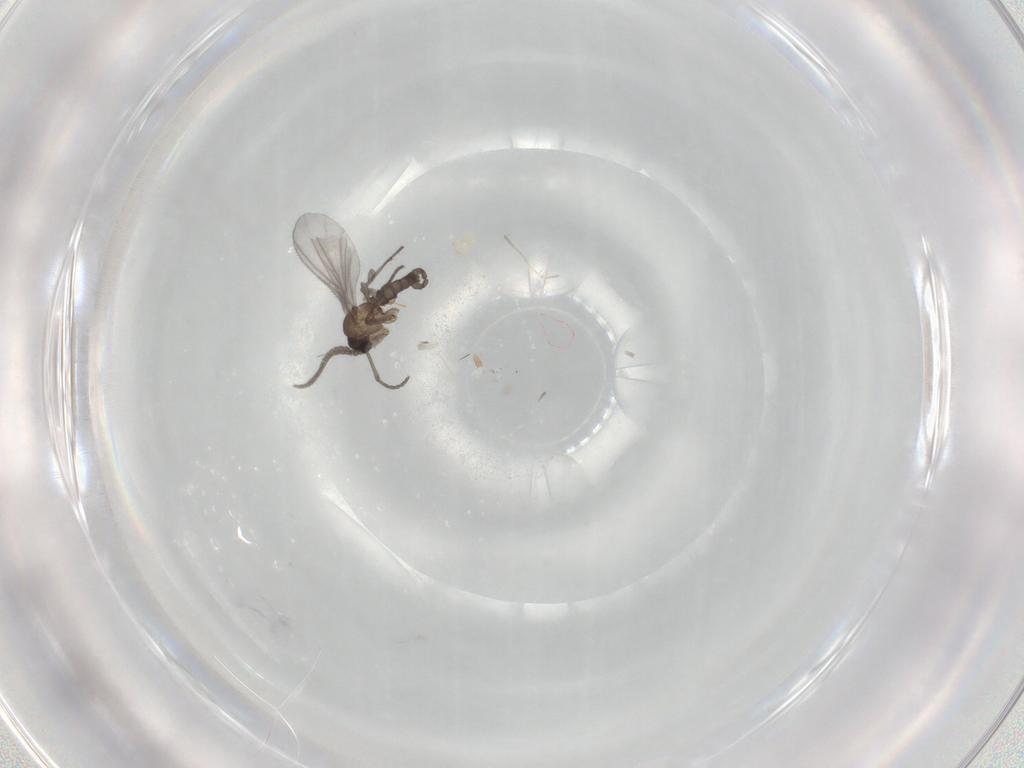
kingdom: Animalia
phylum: Arthropoda
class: Insecta
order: Diptera
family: Sciaridae
